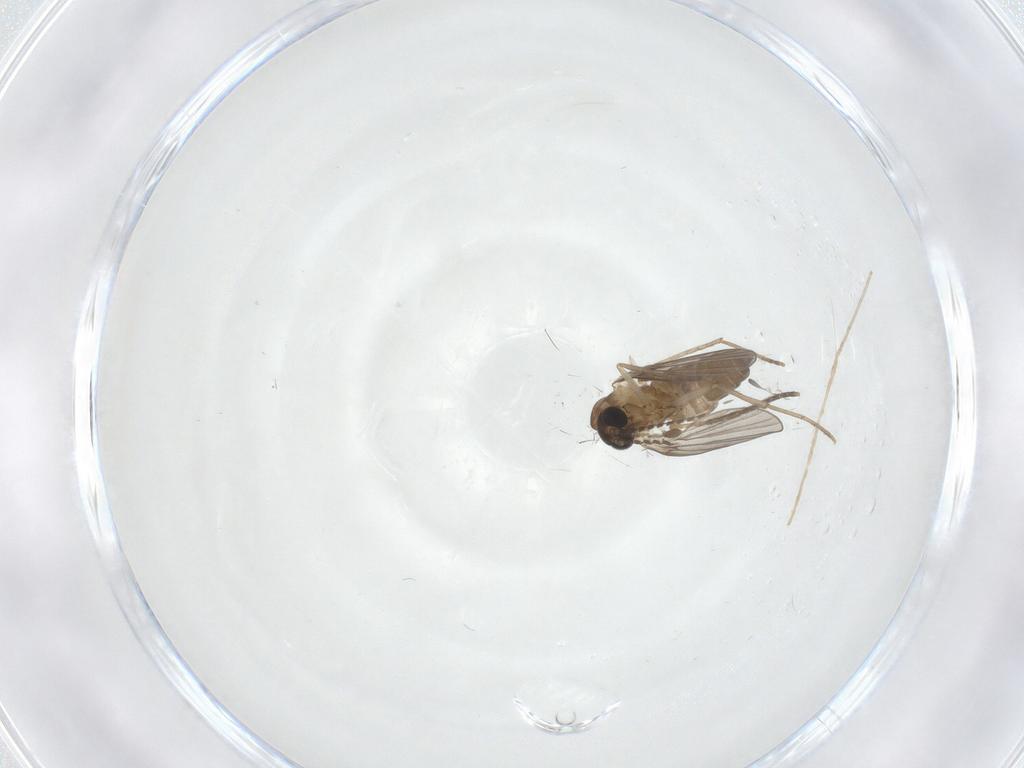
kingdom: Animalia
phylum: Arthropoda
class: Insecta
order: Diptera
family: Chironomidae
